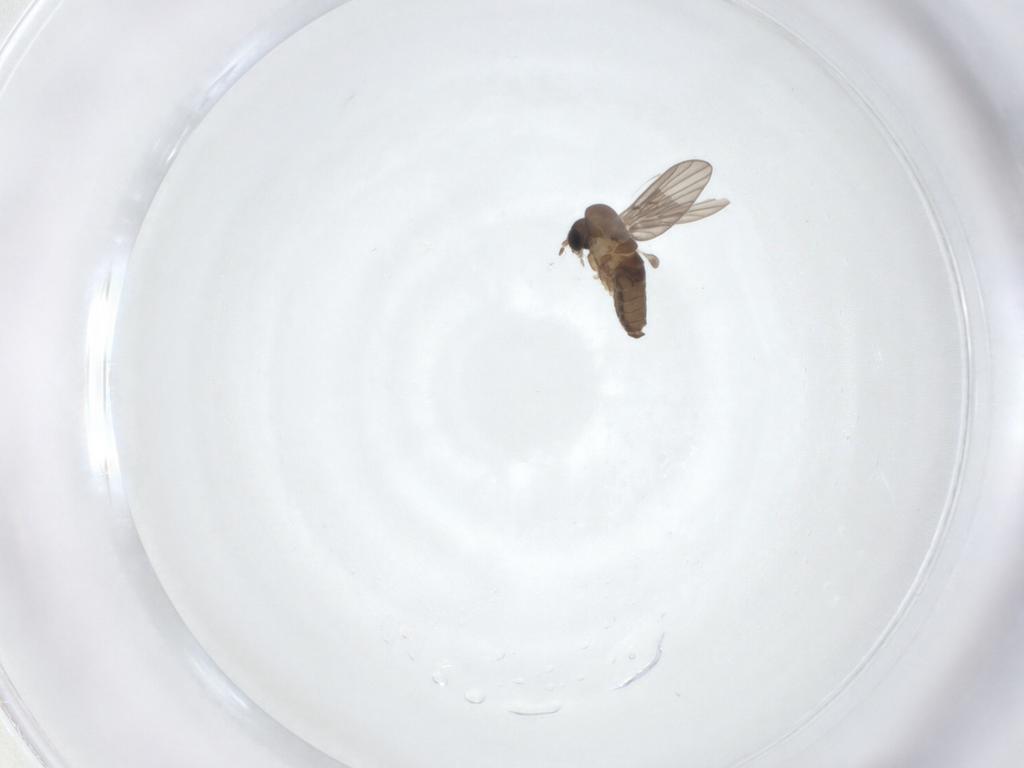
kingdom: Animalia
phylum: Arthropoda
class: Insecta
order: Diptera
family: Psychodidae
